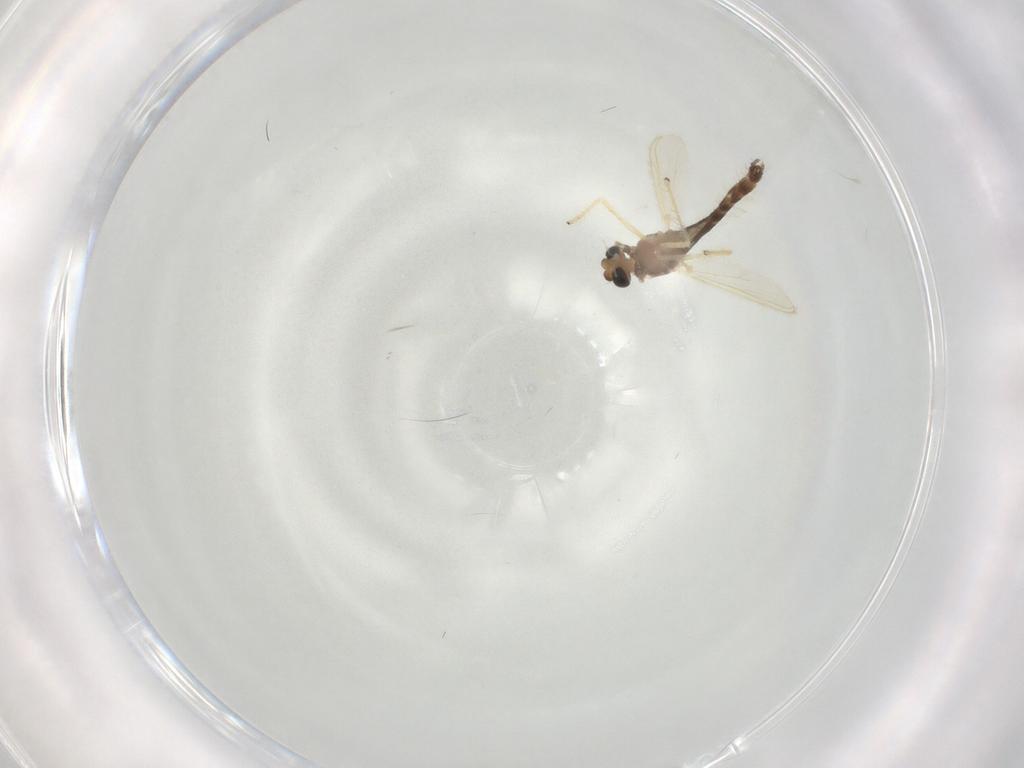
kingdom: Animalia
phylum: Arthropoda
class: Insecta
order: Diptera
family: Chironomidae
